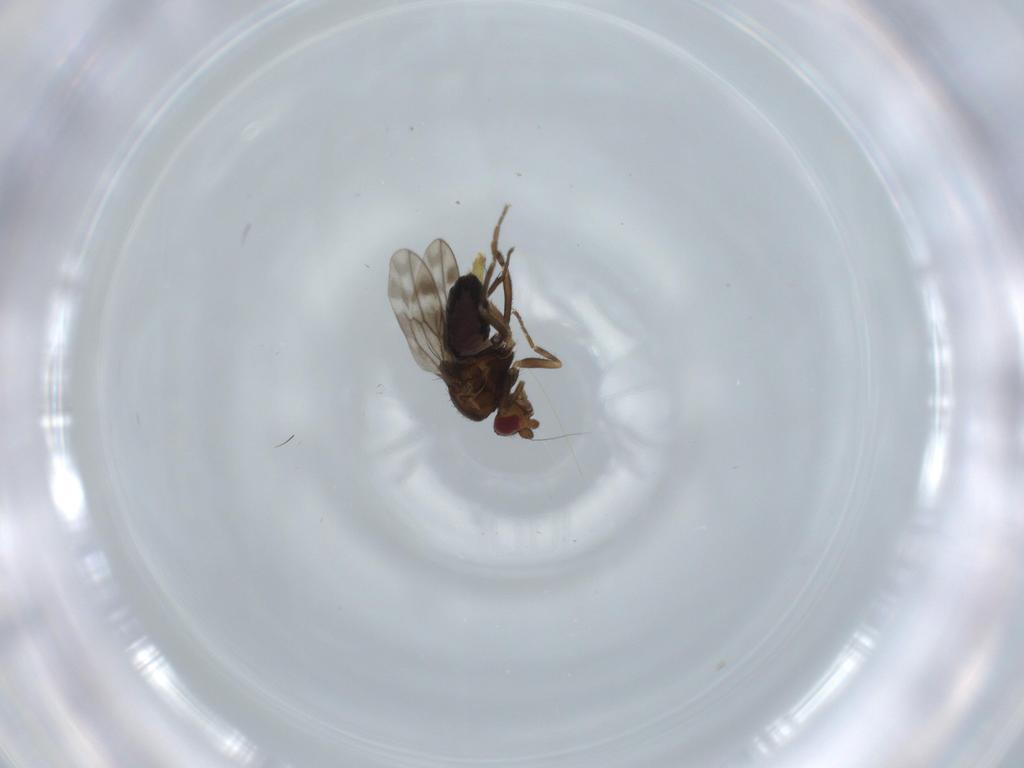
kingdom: Animalia
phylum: Arthropoda
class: Insecta
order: Diptera
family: Sphaeroceridae
